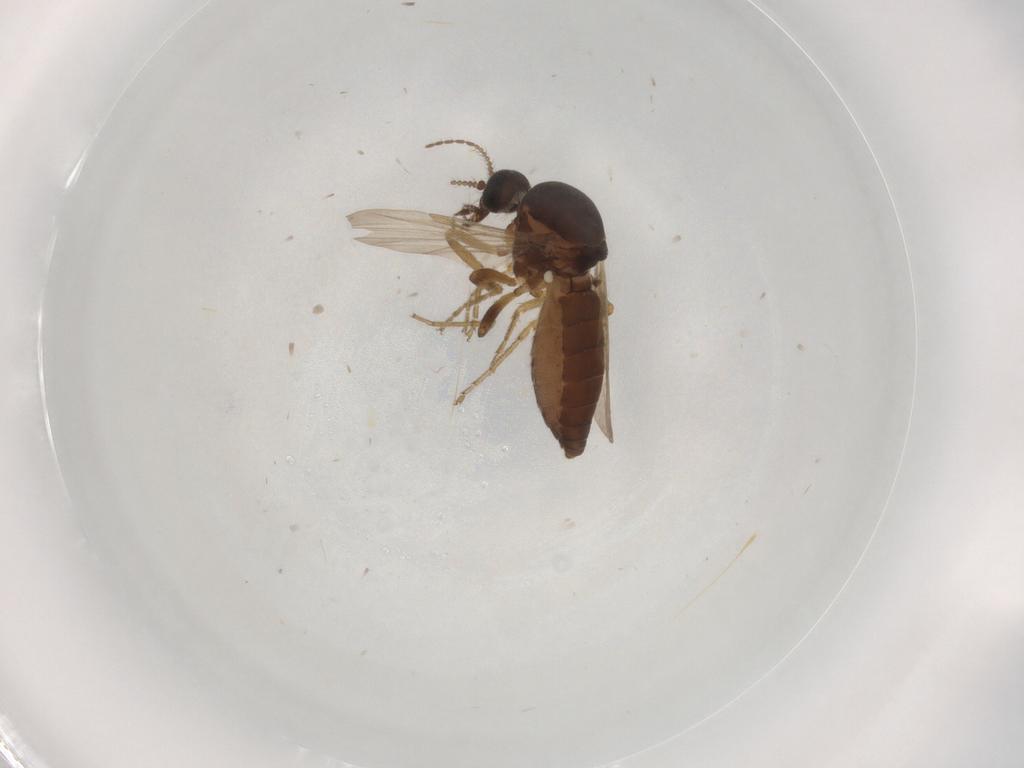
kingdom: Animalia
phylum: Arthropoda
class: Insecta
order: Diptera
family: Ceratopogonidae
